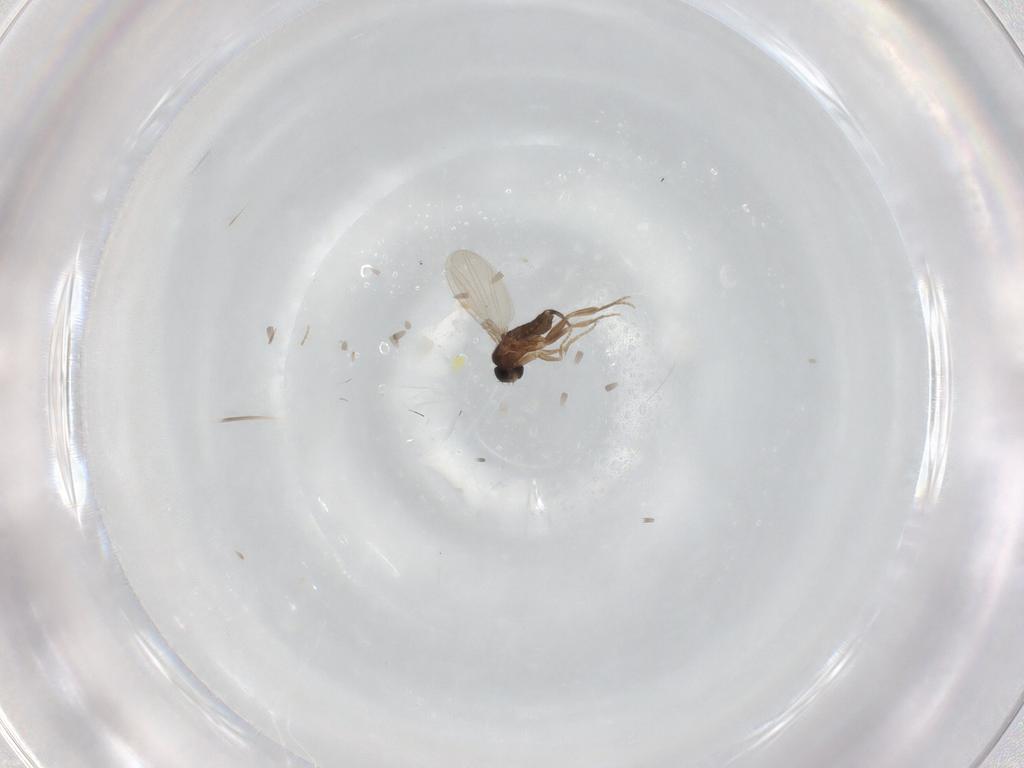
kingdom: Animalia
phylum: Arthropoda
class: Insecta
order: Diptera
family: Phoridae
